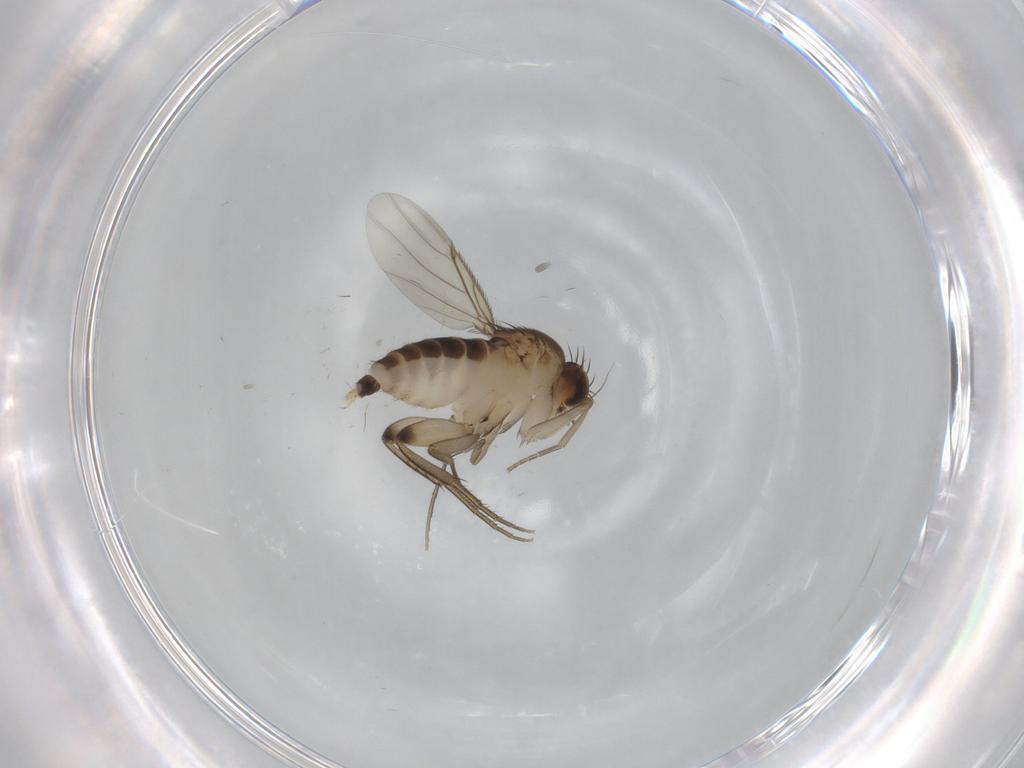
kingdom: Animalia
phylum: Arthropoda
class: Insecta
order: Diptera
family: Phoridae
